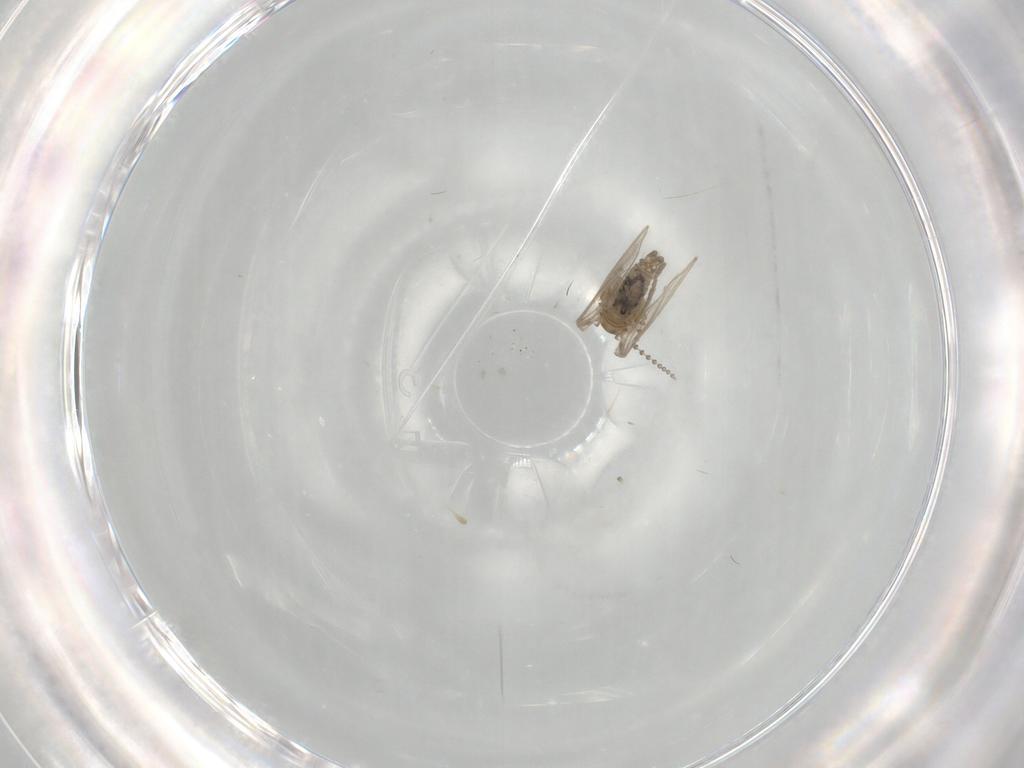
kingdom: Animalia
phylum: Arthropoda
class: Insecta
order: Diptera
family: Psychodidae
